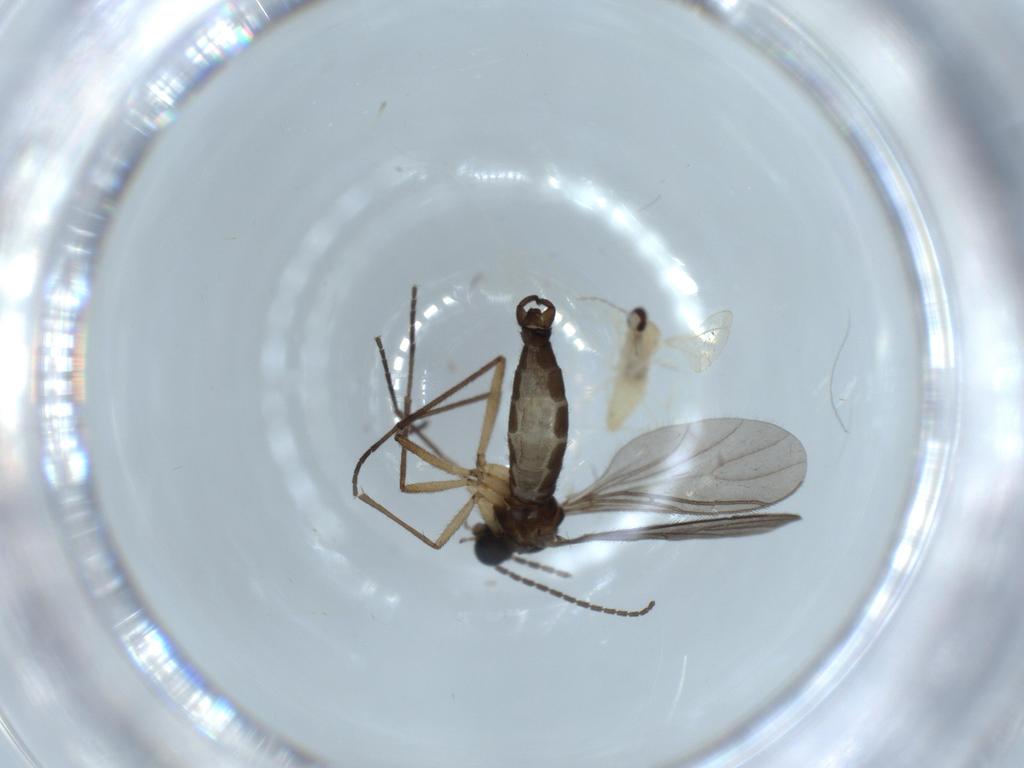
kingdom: Animalia
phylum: Arthropoda
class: Insecta
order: Diptera
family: Cecidomyiidae
